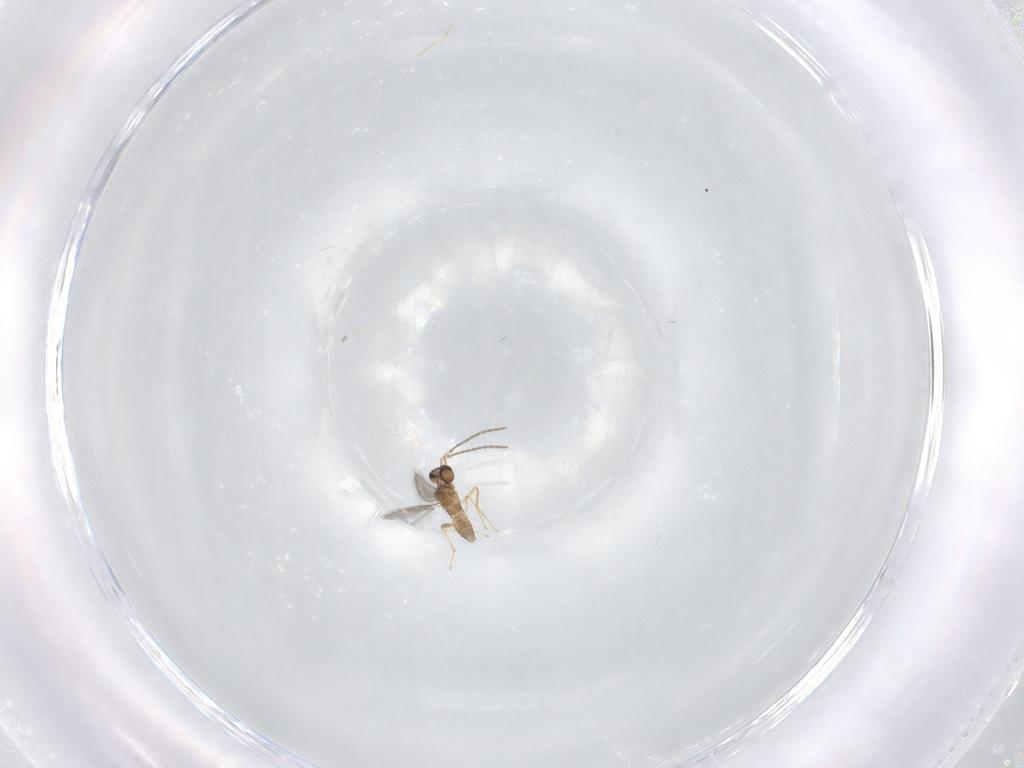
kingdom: Animalia
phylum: Arthropoda
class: Insecta
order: Hymenoptera
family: Mymaridae
